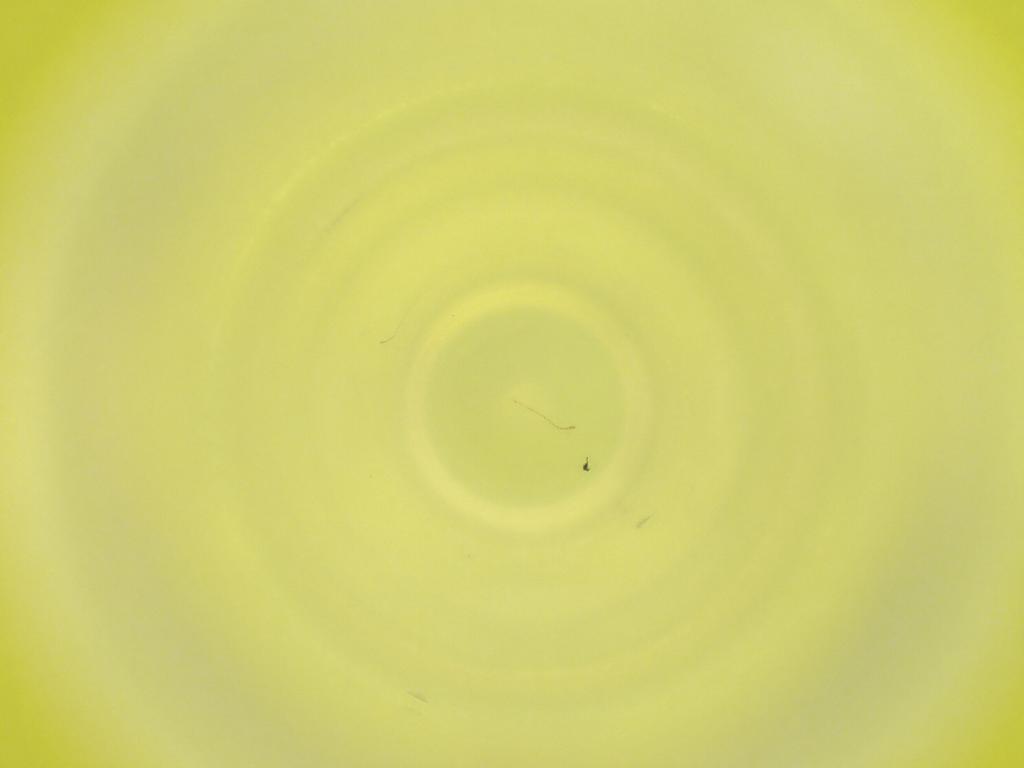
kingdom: Animalia
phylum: Arthropoda
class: Insecta
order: Diptera
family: Cecidomyiidae
